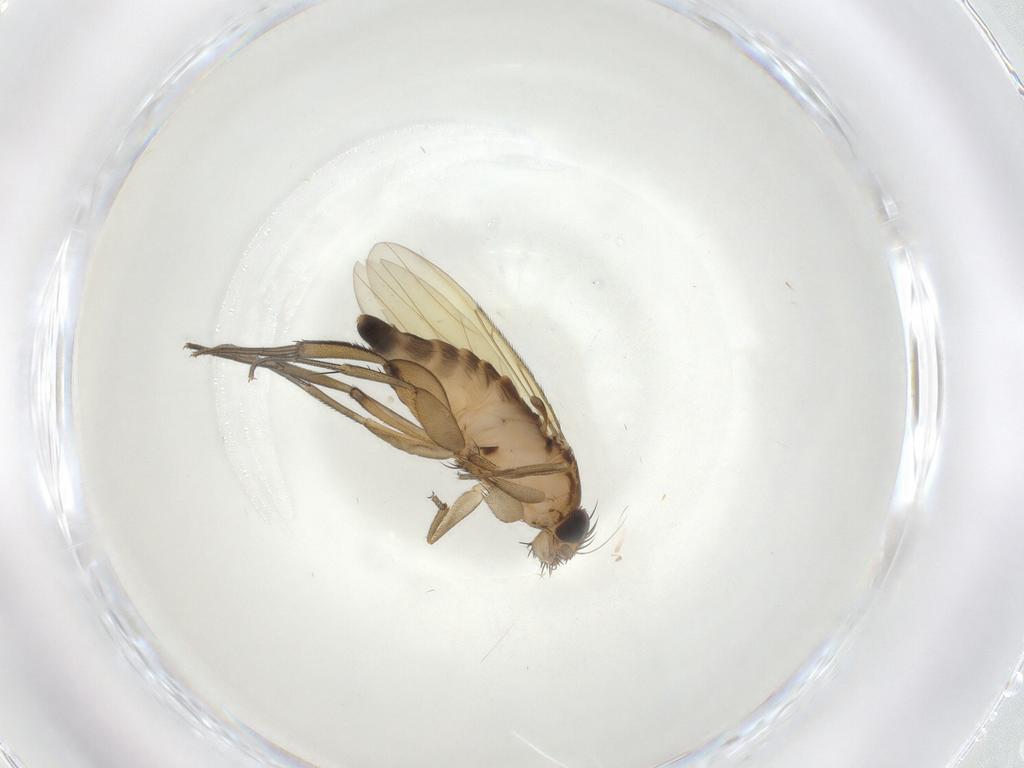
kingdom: Animalia
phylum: Arthropoda
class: Insecta
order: Diptera
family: Phoridae
